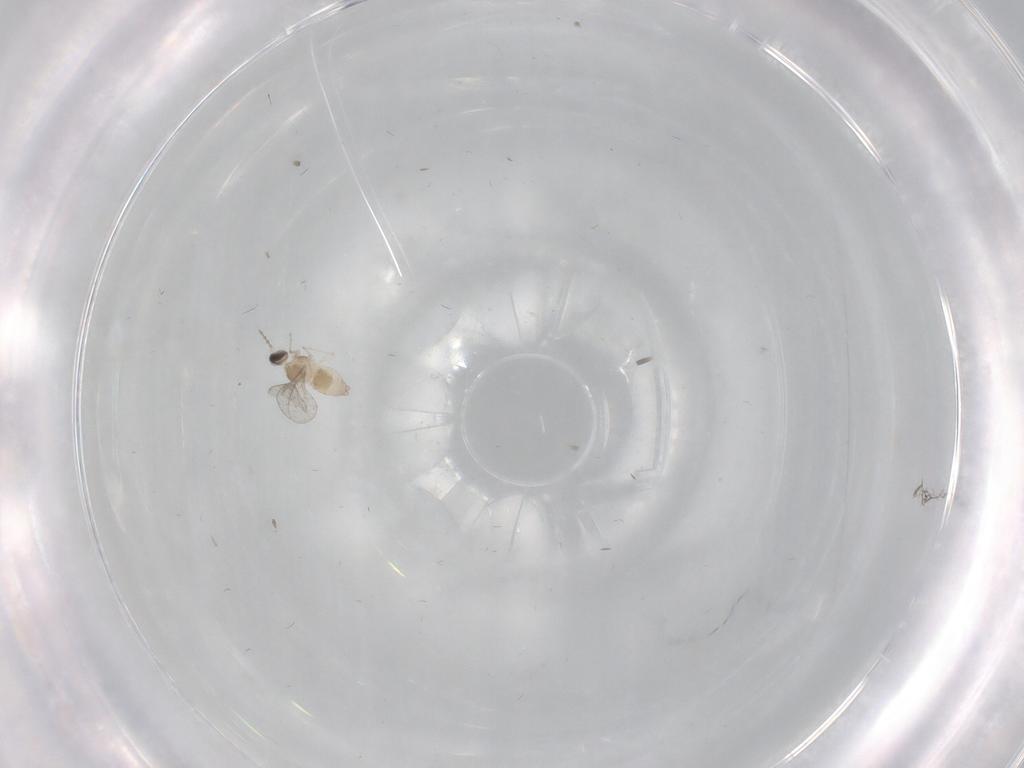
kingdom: Animalia
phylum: Arthropoda
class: Insecta
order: Diptera
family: Cecidomyiidae
